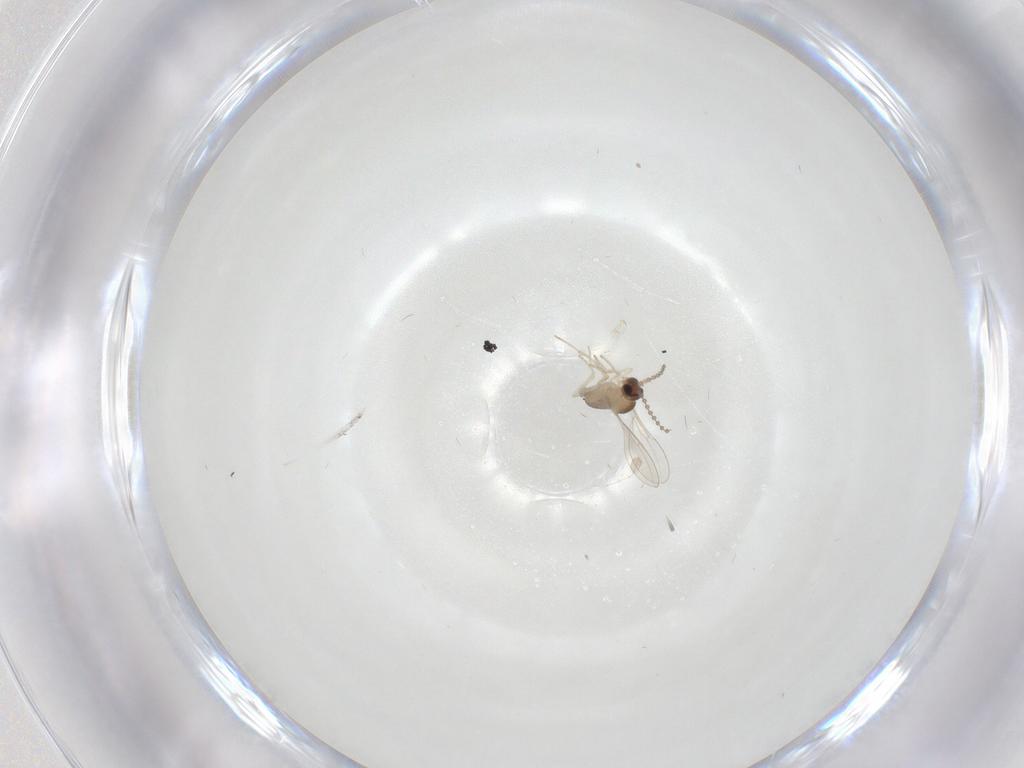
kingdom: Animalia
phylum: Arthropoda
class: Insecta
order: Diptera
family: Cecidomyiidae
